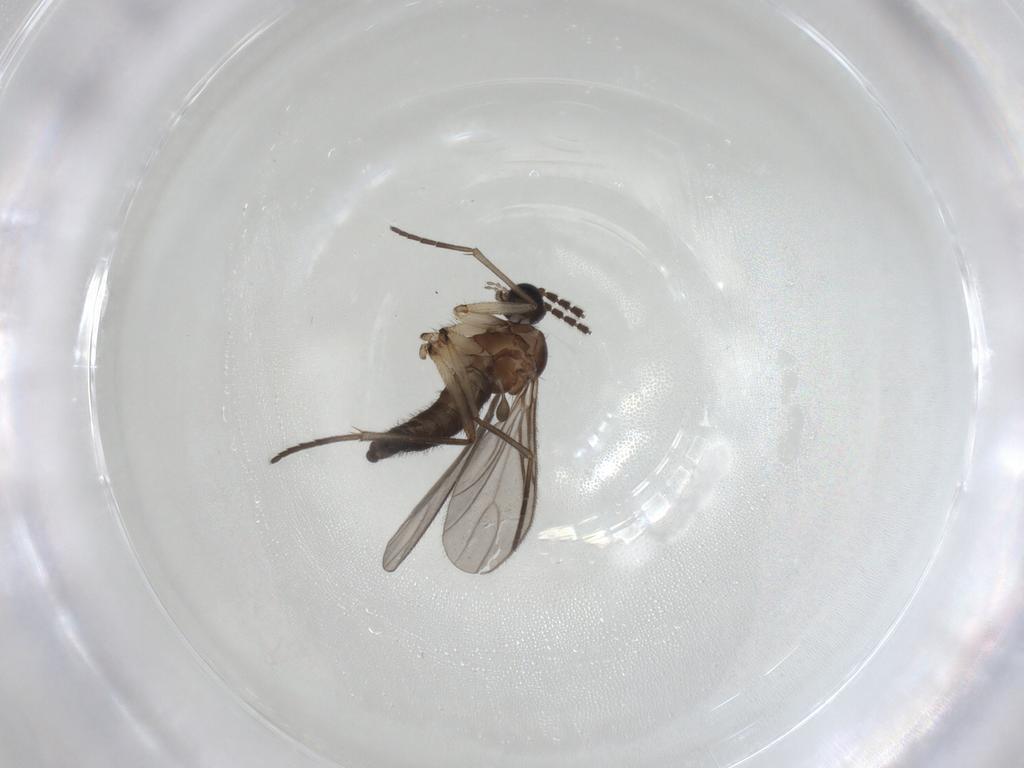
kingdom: Animalia
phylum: Arthropoda
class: Insecta
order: Diptera
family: Sciaridae
